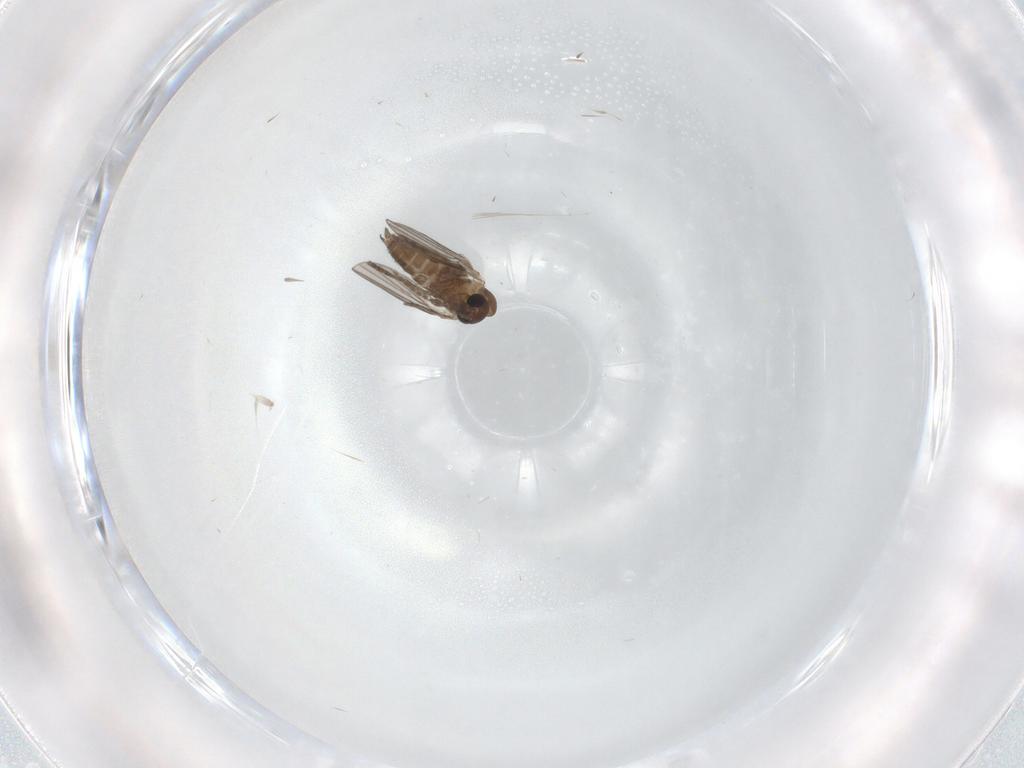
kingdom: Animalia
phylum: Arthropoda
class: Insecta
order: Diptera
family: Limoniidae
